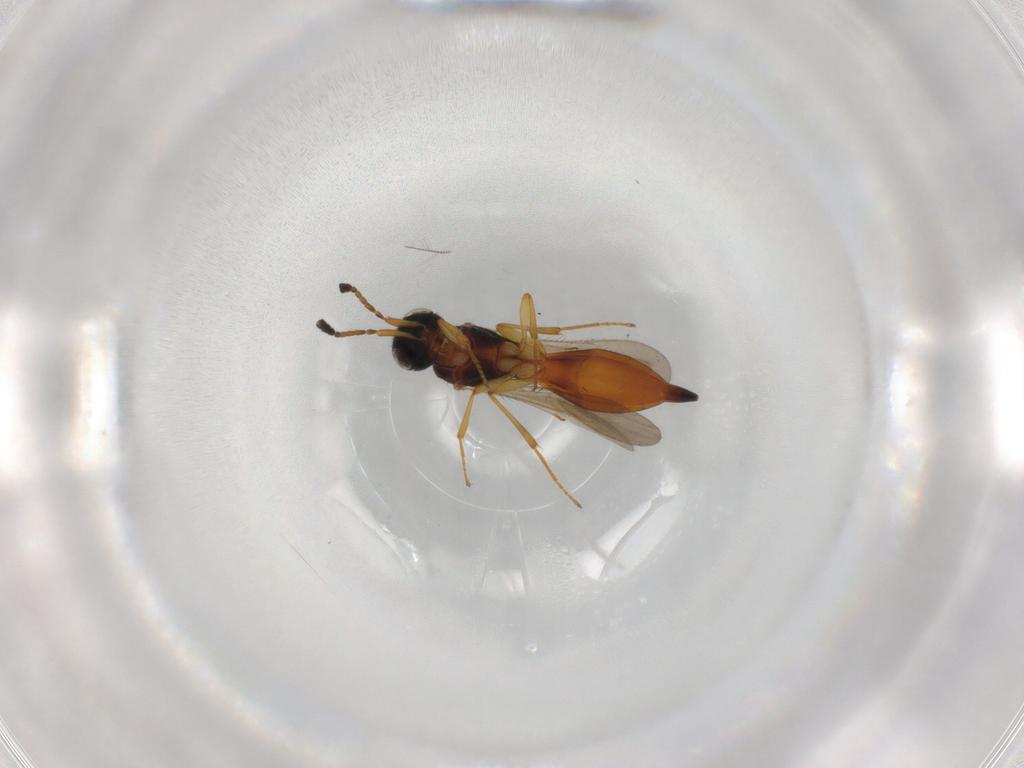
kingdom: Animalia
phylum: Arthropoda
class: Insecta
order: Hymenoptera
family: Scelionidae
